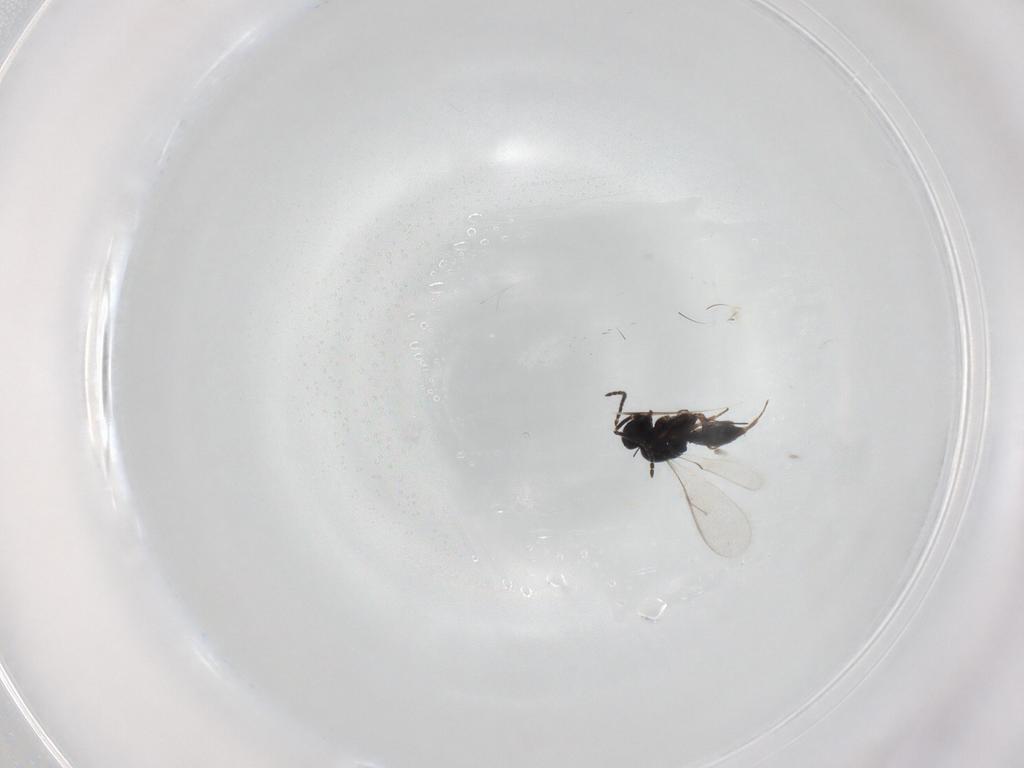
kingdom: Animalia
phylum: Arthropoda
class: Insecta
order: Hymenoptera
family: Scelionidae
